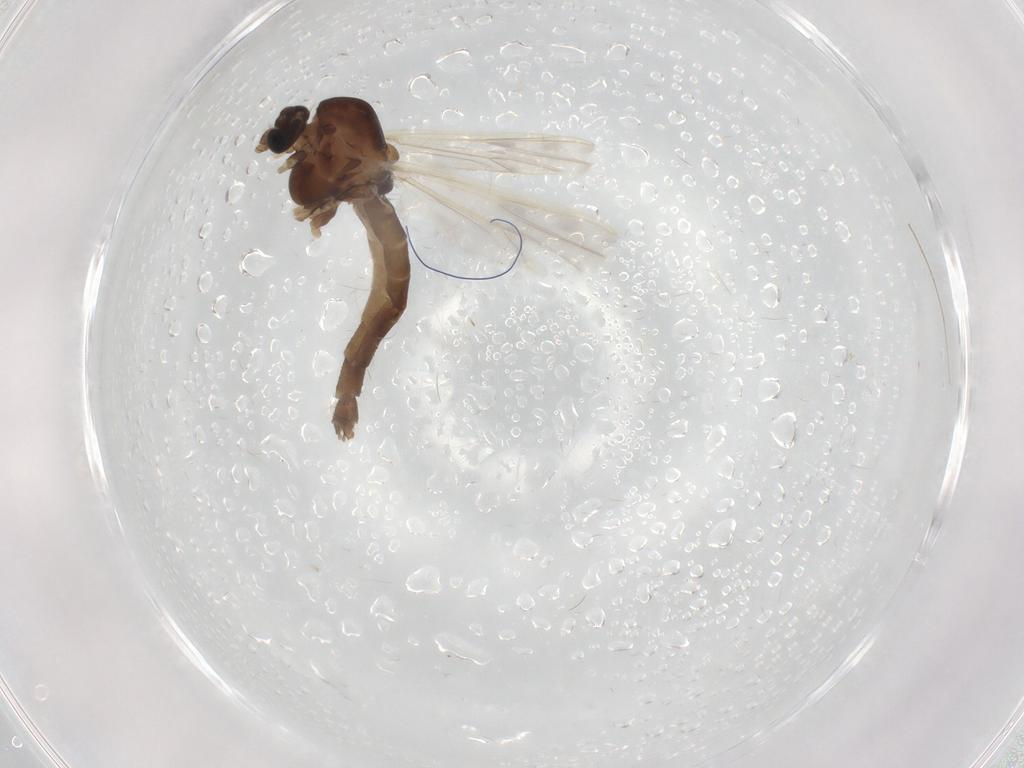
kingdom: Animalia
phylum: Arthropoda
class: Insecta
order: Diptera
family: Chironomidae
